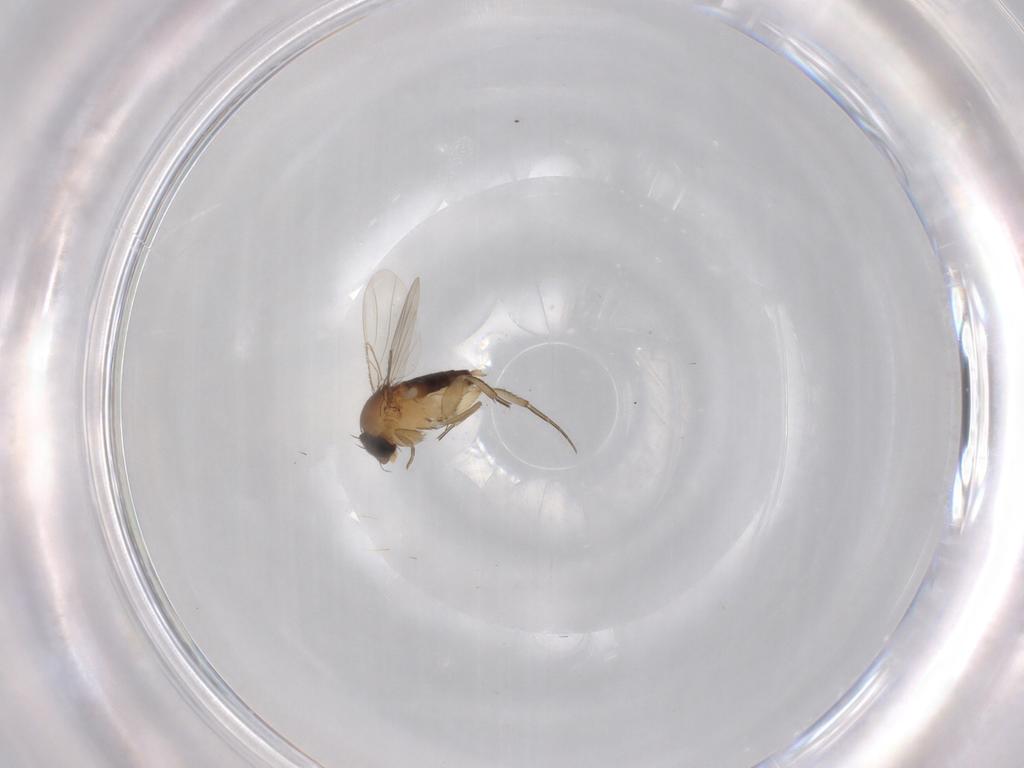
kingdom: Animalia
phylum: Arthropoda
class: Insecta
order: Diptera
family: Phoridae
